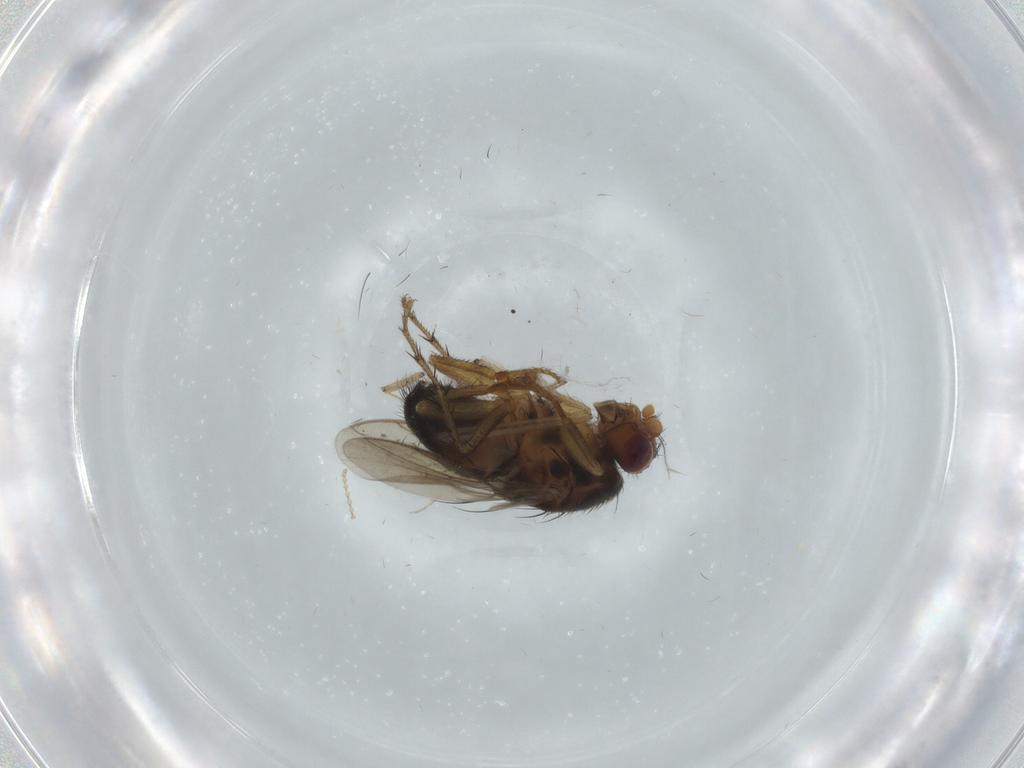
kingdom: Animalia
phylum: Arthropoda
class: Insecta
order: Diptera
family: Sphaeroceridae
